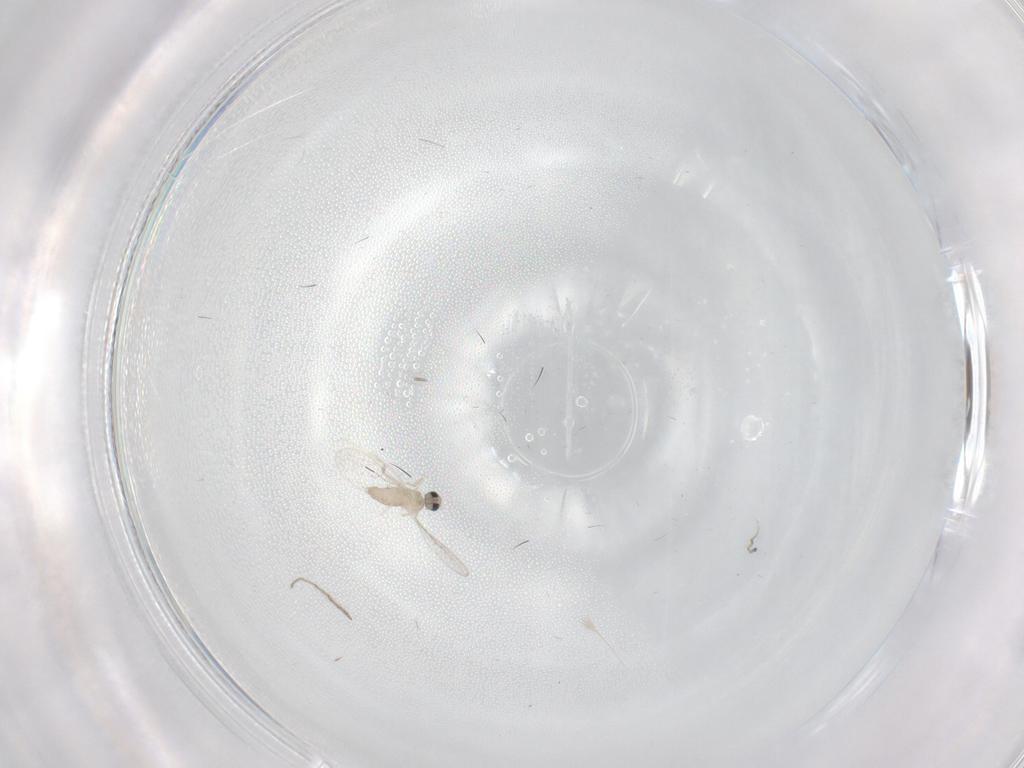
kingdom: Animalia
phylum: Arthropoda
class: Insecta
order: Diptera
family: Chironomidae
